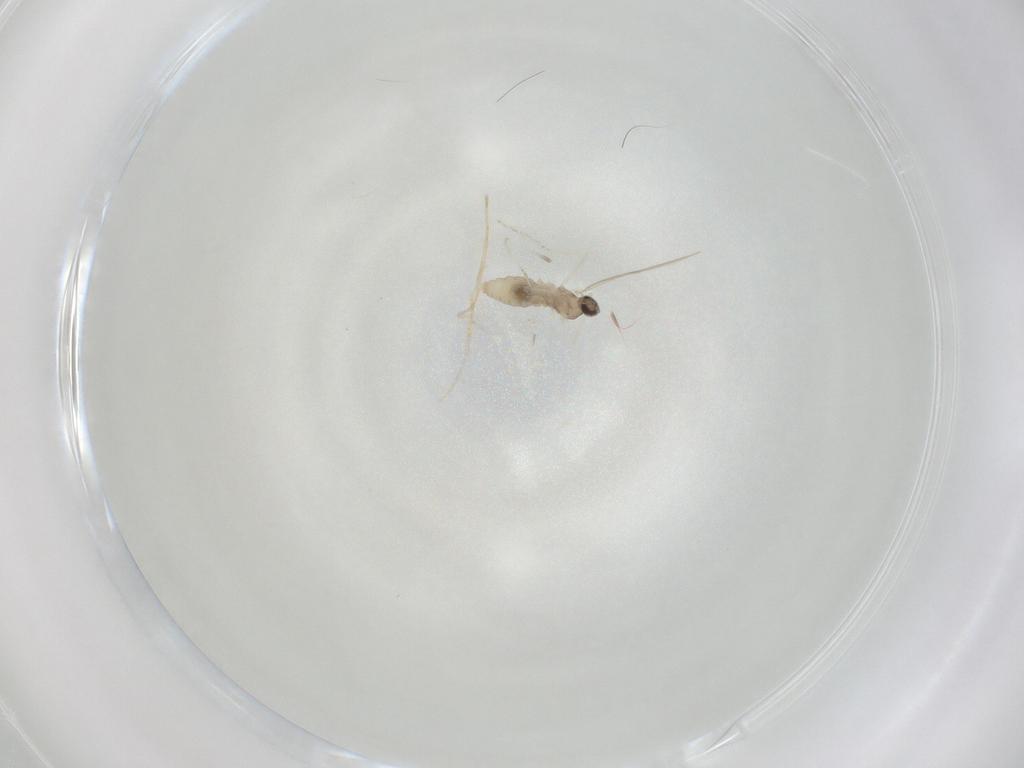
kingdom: Animalia
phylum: Arthropoda
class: Insecta
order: Diptera
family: Cecidomyiidae
